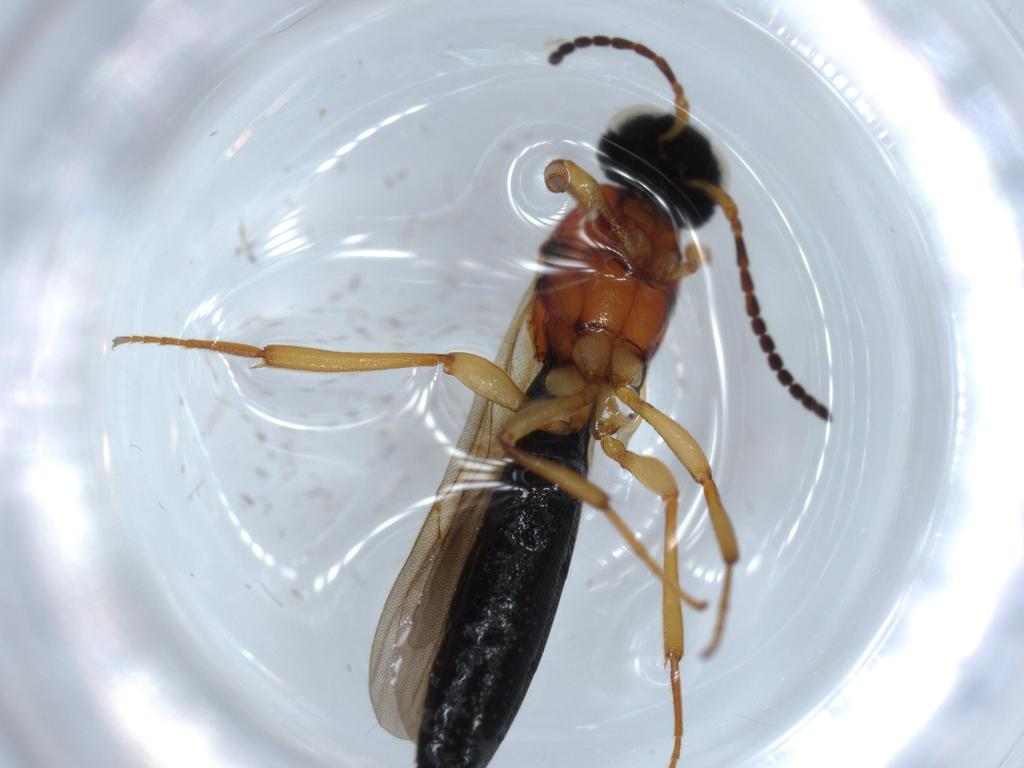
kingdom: Animalia
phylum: Arthropoda
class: Insecta
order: Hymenoptera
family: Scelionidae
